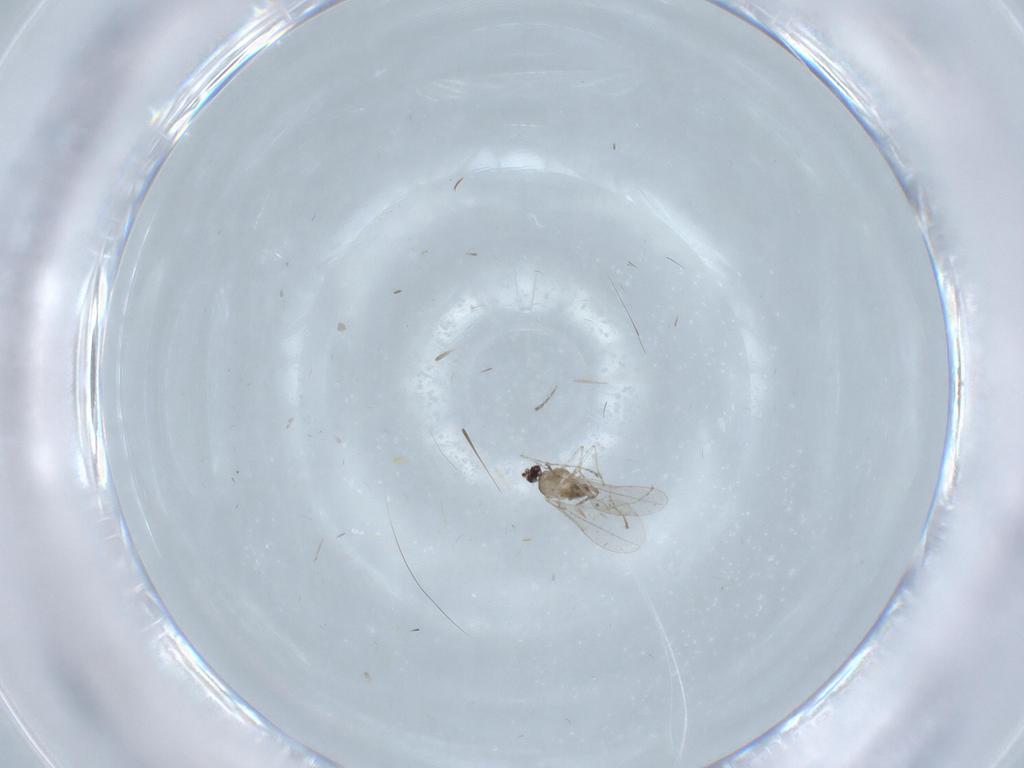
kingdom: Animalia
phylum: Arthropoda
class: Insecta
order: Diptera
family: Cecidomyiidae
